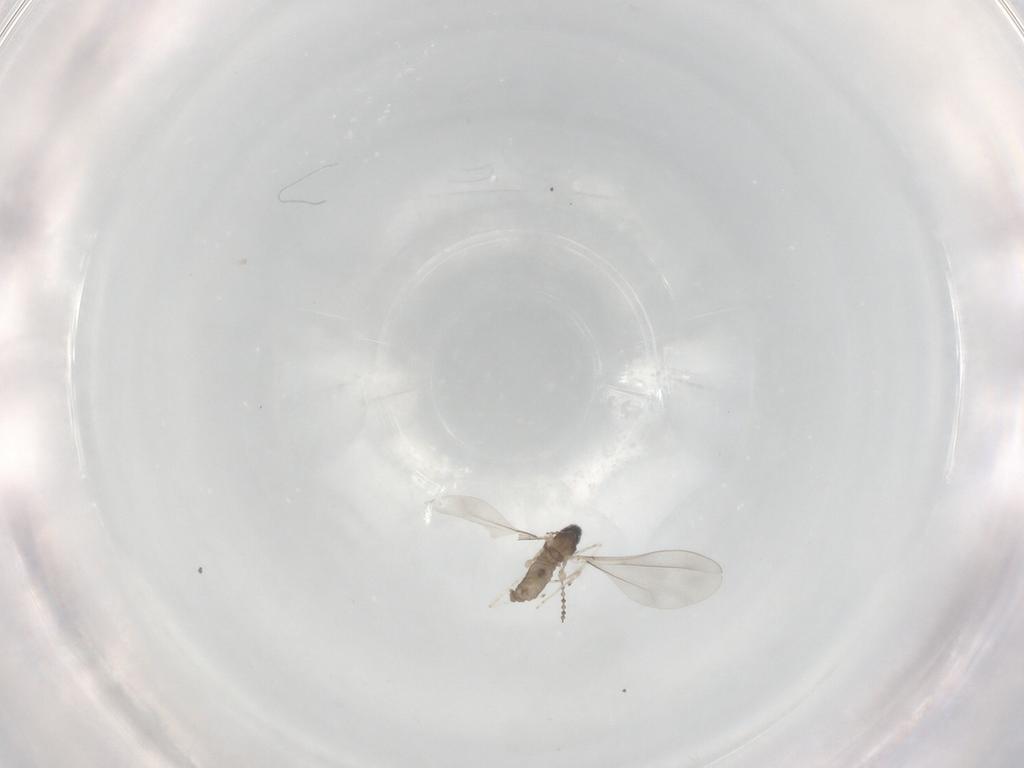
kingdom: Animalia
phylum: Arthropoda
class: Insecta
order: Diptera
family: Cecidomyiidae
